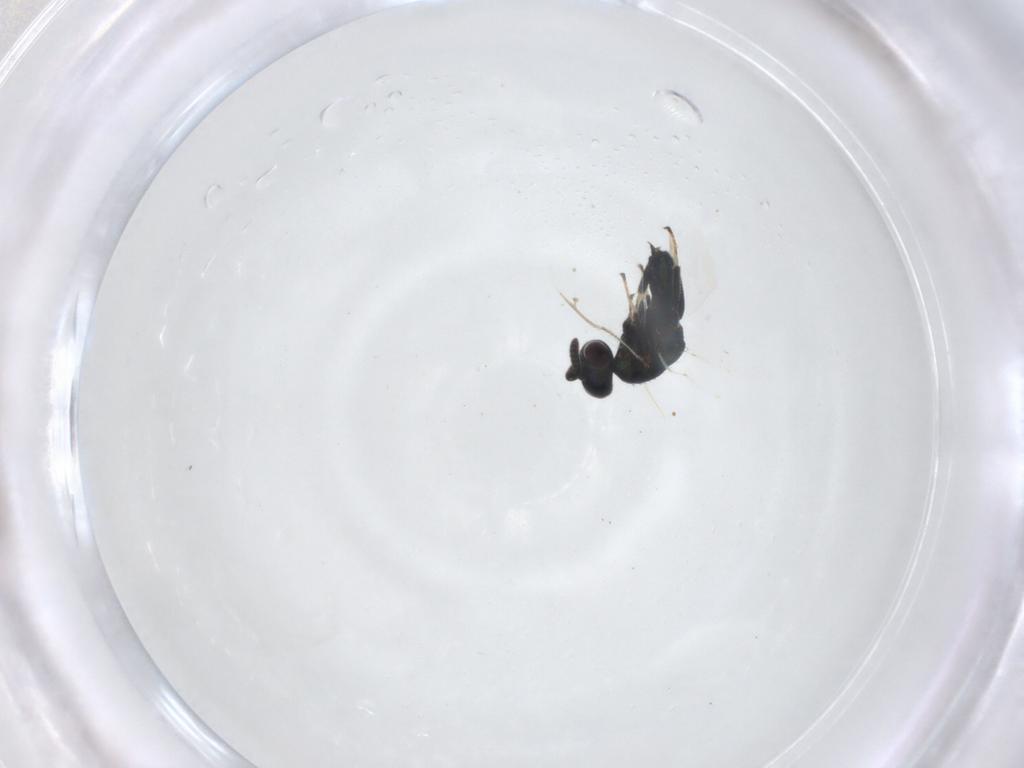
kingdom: Animalia
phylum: Arthropoda
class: Insecta
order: Hymenoptera
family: Pteromalidae
